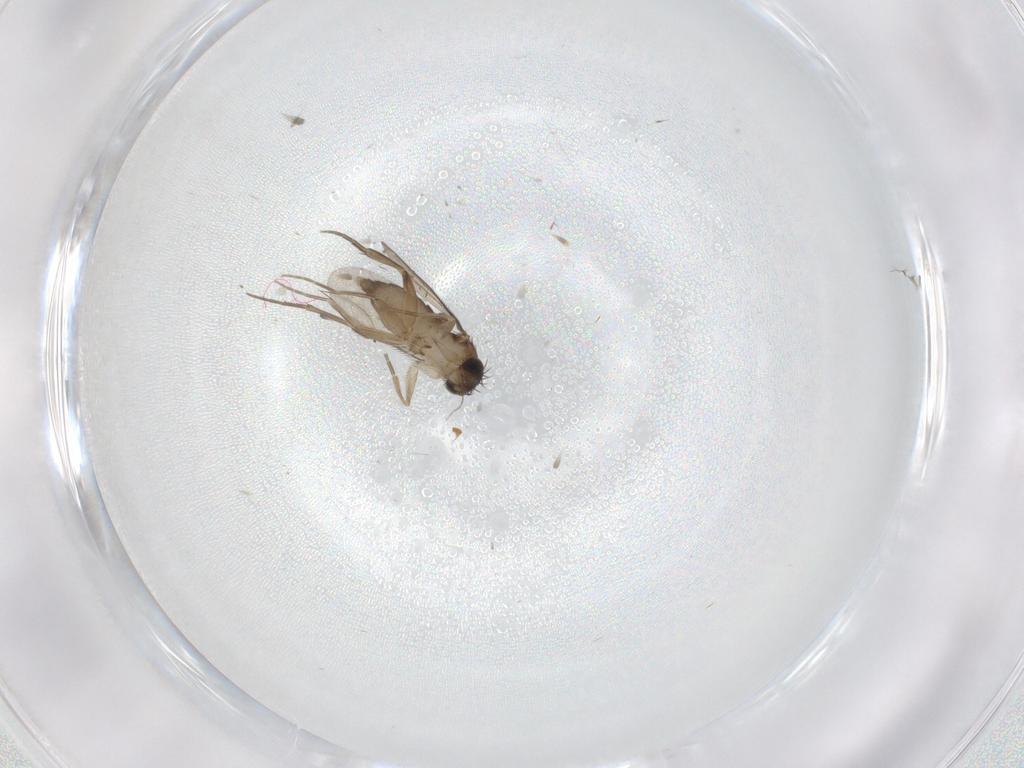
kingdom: Animalia
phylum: Arthropoda
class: Insecta
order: Diptera
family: Phoridae
